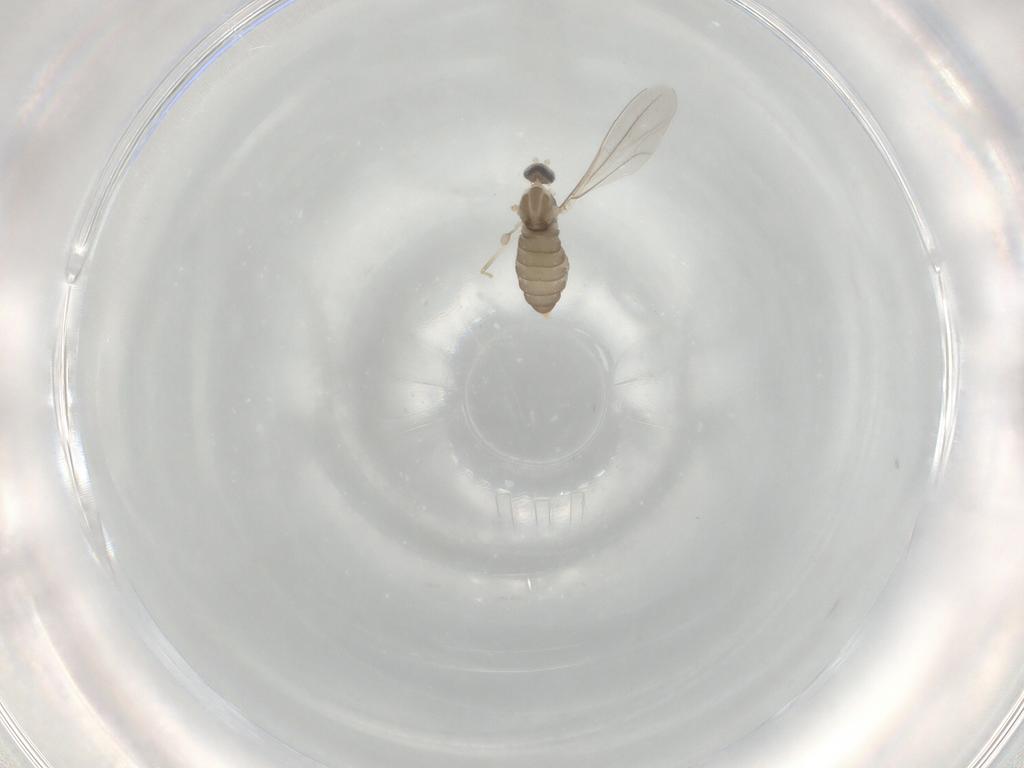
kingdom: Animalia
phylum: Arthropoda
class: Insecta
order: Diptera
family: Cecidomyiidae
